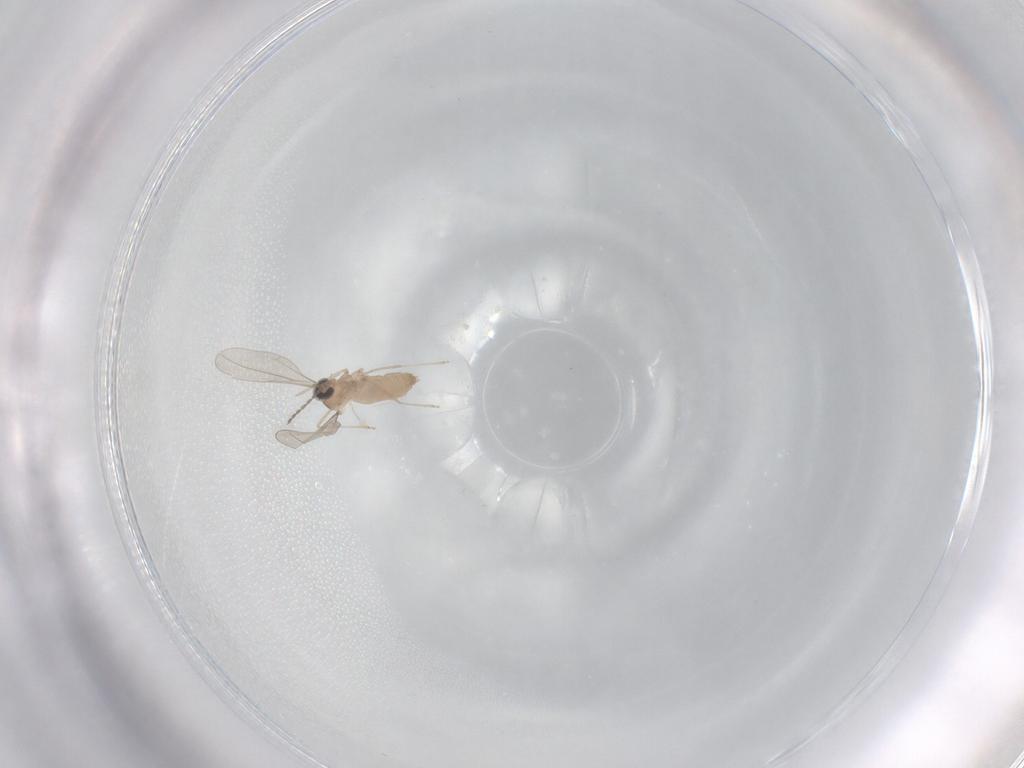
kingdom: Animalia
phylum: Arthropoda
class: Insecta
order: Diptera
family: Cecidomyiidae
